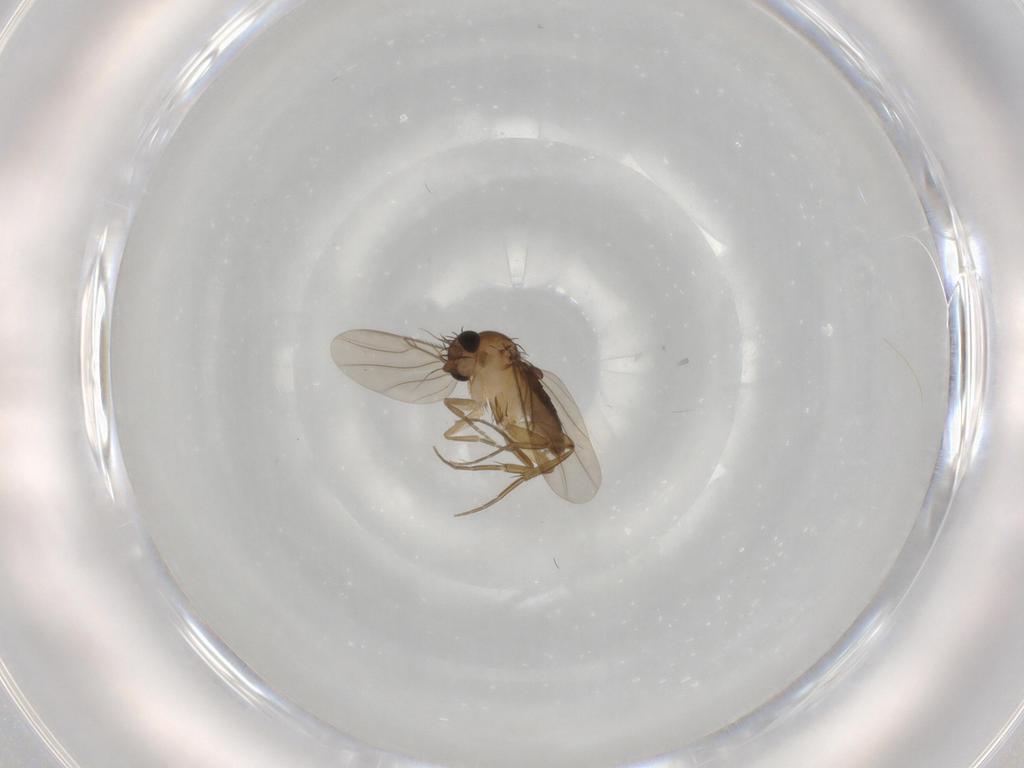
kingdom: Animalia
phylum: Arthropoda
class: Insecta
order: Diptera
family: Phoridae
